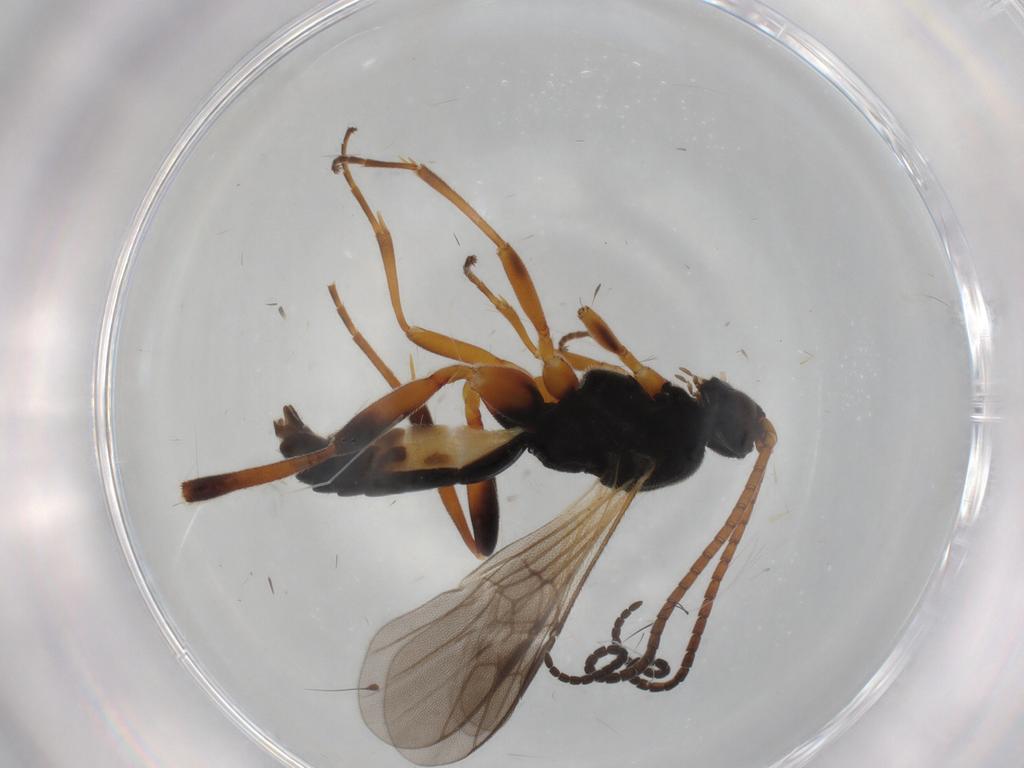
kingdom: Animalia
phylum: Arthropoda
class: Insecta
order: Hymenoptera
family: Braconidae
